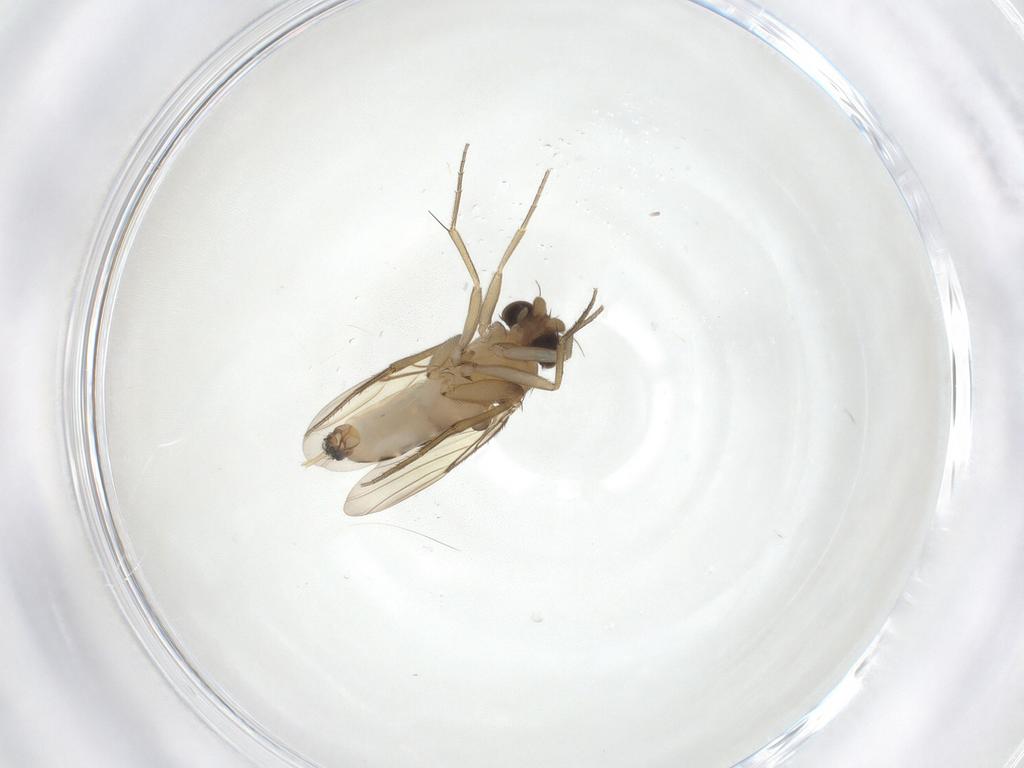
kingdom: Animalia
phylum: Arthropoda
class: Insecta
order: Diptera
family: Phoridae
